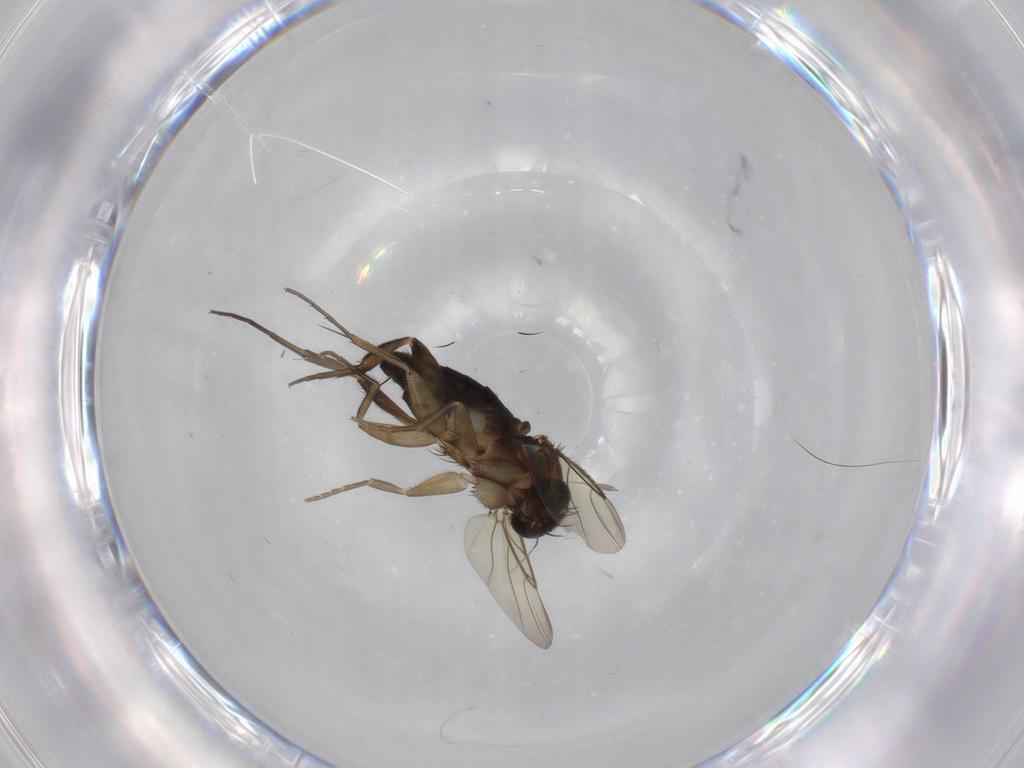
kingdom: Animalia
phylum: Arthropoda
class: Insecta
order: Diptera
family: Phoridae
